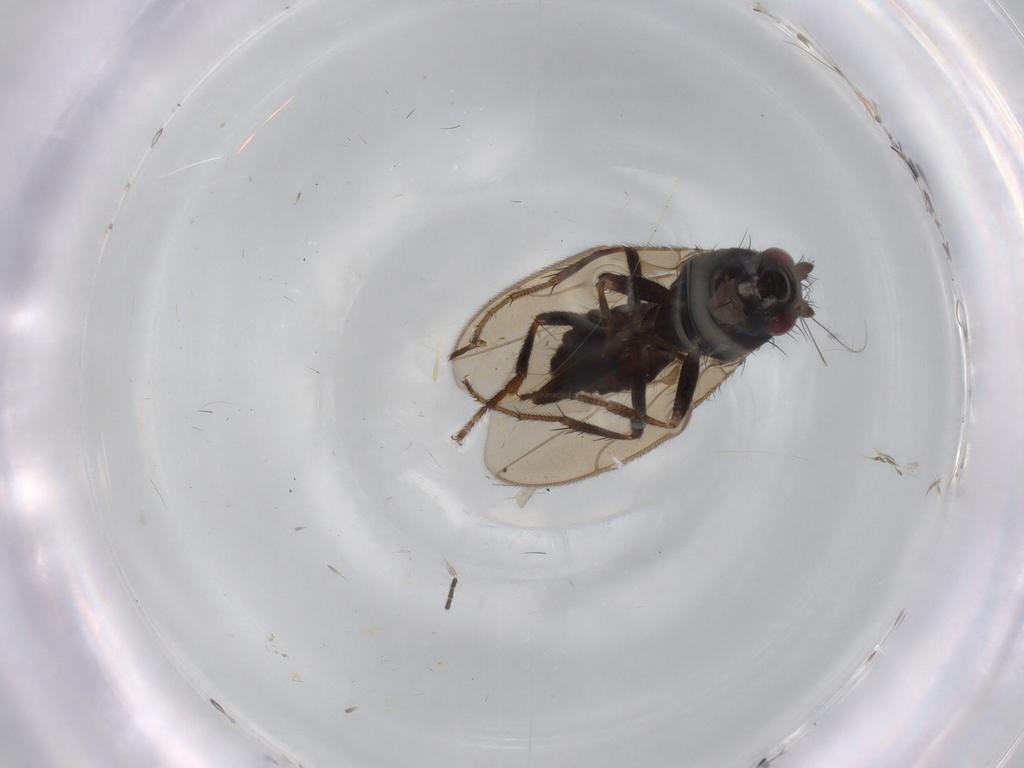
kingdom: Animalia
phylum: Arthropoda
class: Insecta
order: Diptera
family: Sphaeroceridae
